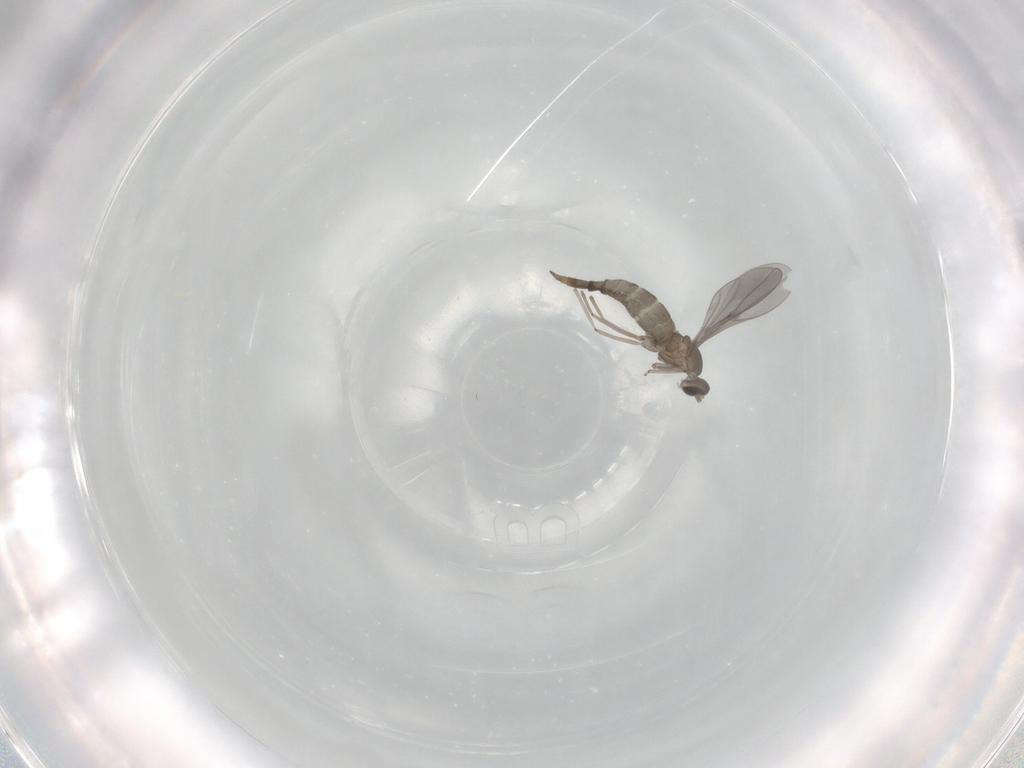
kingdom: Animalia
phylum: Arthropoda
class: Insecta
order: Diptera
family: Cecidomyiidae
